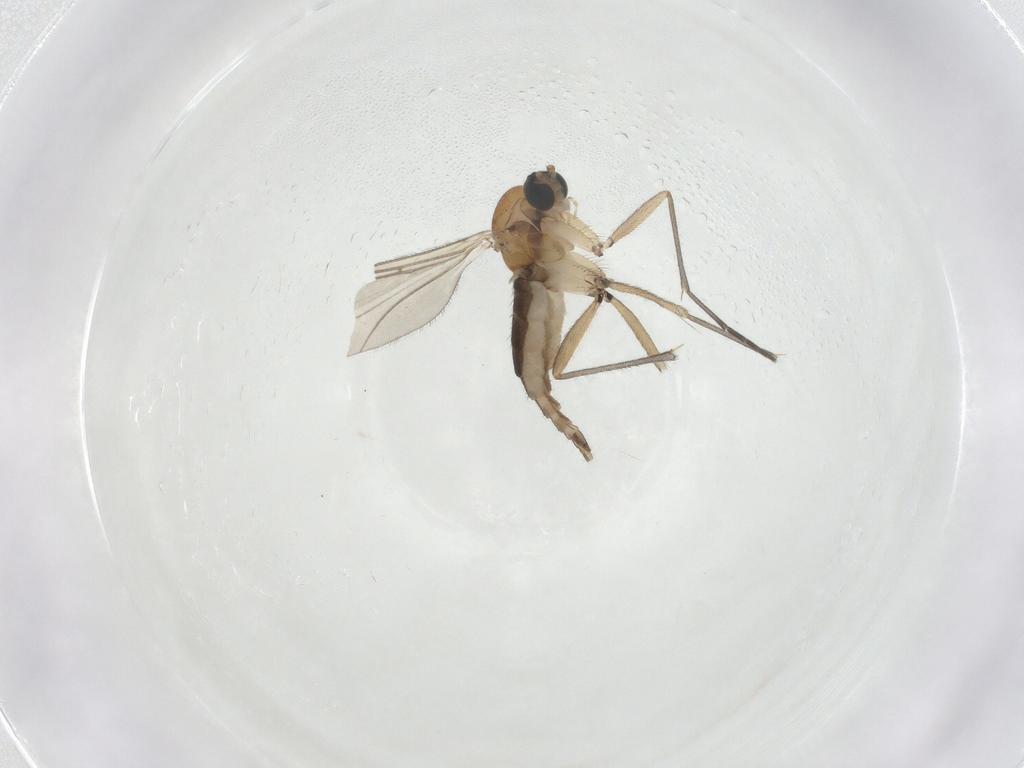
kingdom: Animalia
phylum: Arthropoda
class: Insecta
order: Diptera
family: Sciaridae
